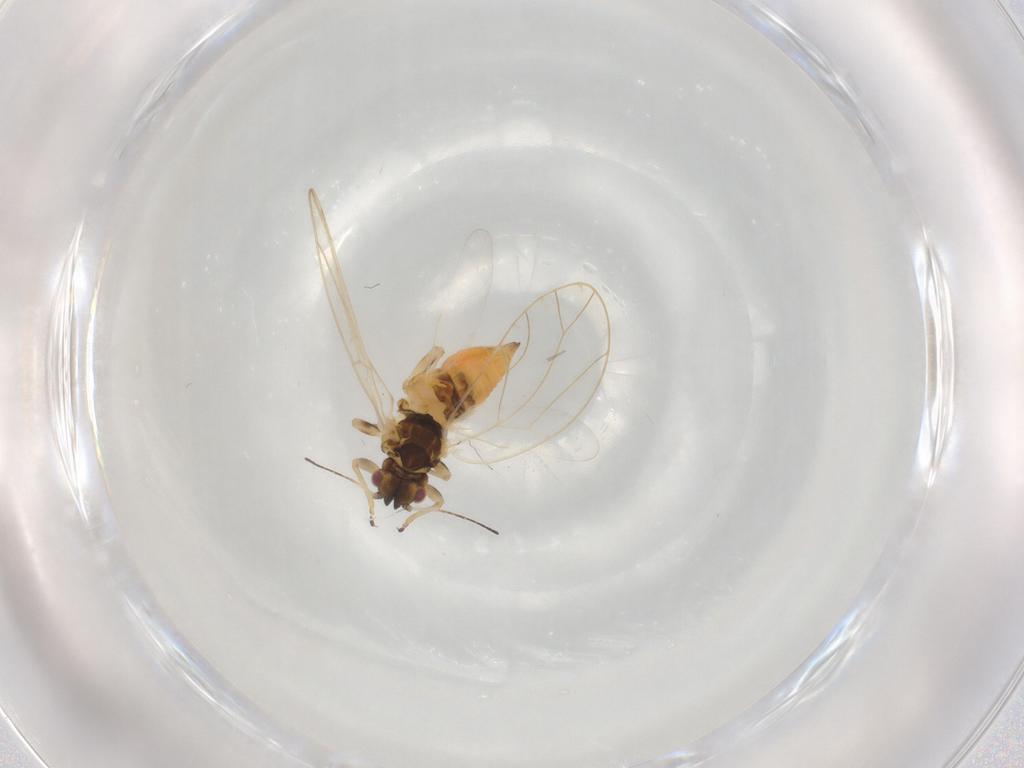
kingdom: Animalia
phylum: Arthropoda
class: Insecta
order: Hemiptera
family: Triozidae
